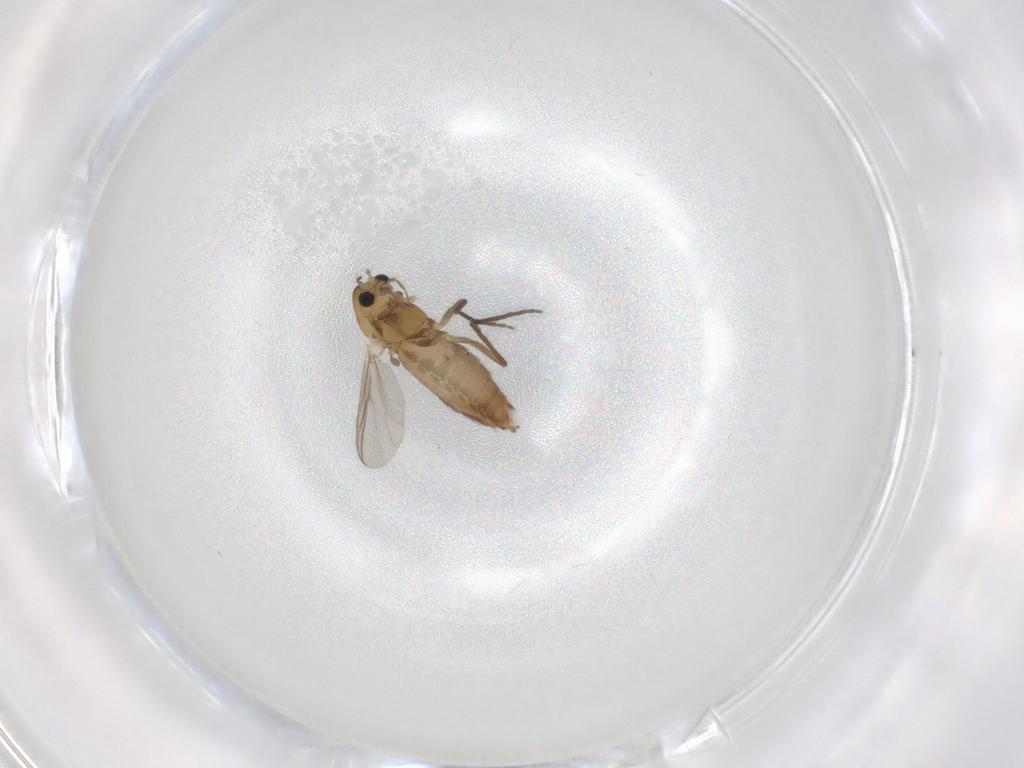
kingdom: Animalia
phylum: Arthropoda
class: Insecta
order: Diptera
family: Chironomidae
